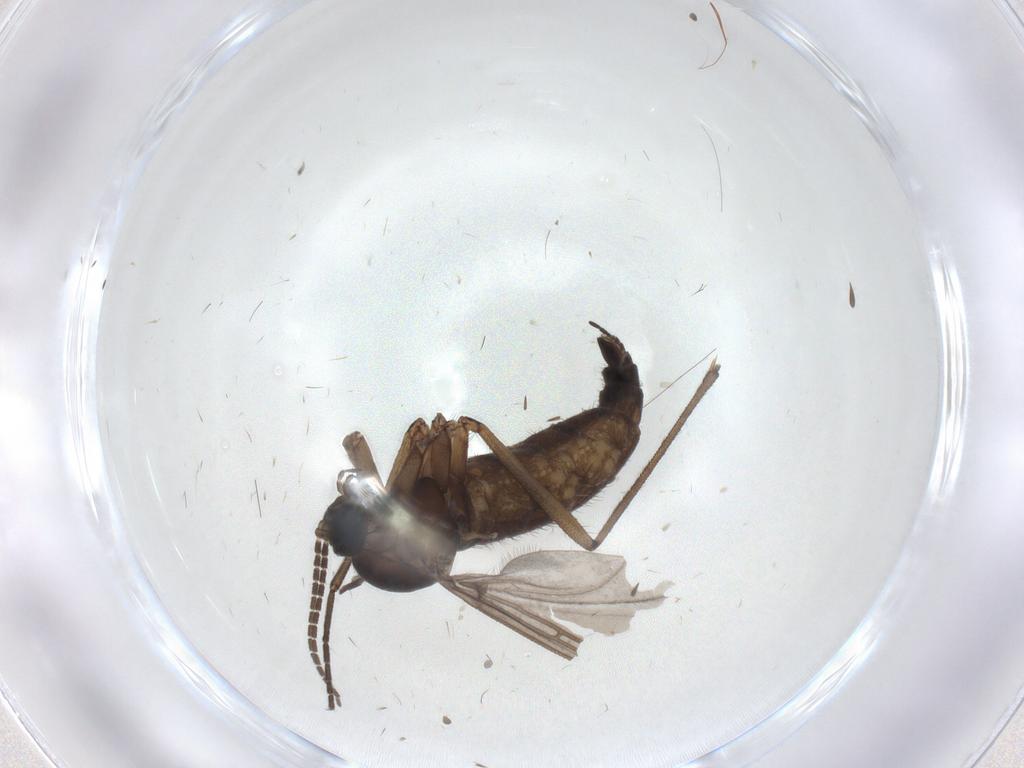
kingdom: Animalia
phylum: Arthropoda
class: Insecta
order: Diptera
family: Sciaridae
